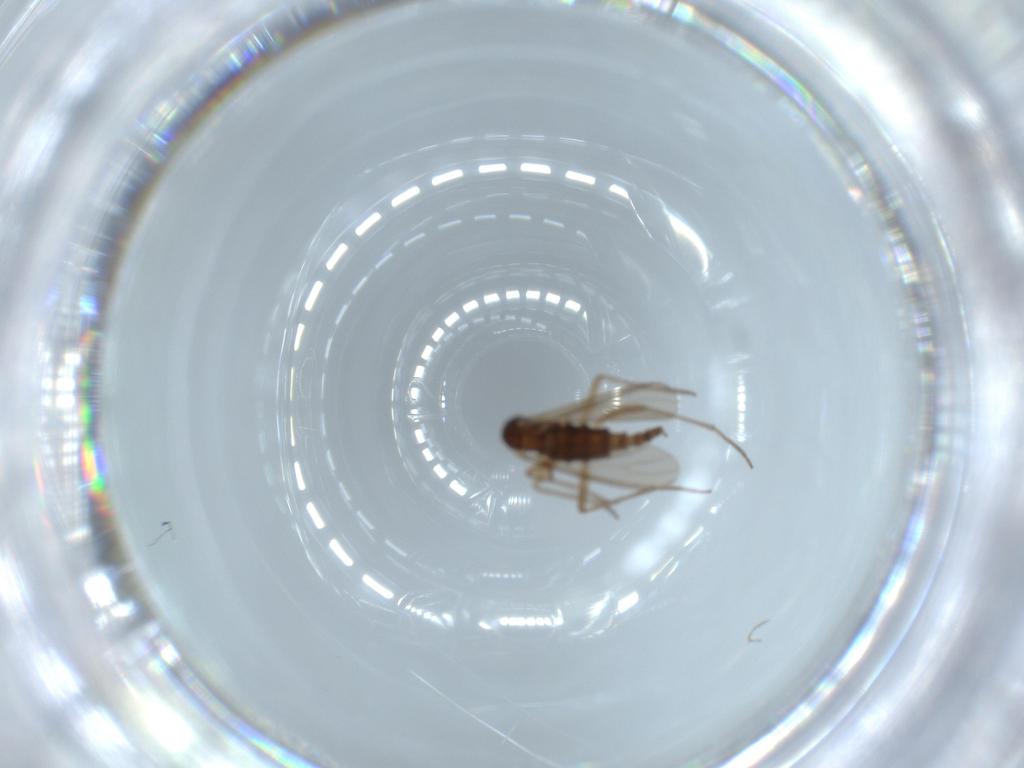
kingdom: Animalia
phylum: Arthropoda
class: Insecta
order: Diptera
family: Sciaridae
